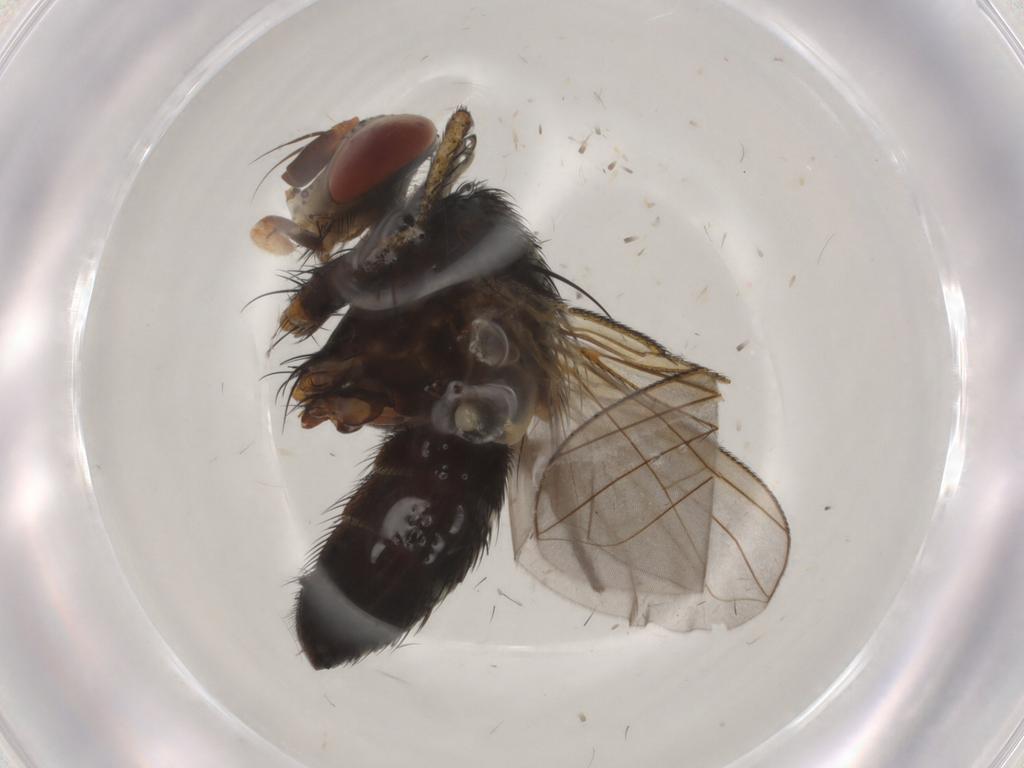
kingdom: Animalia
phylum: Arthropoda
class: Insecta
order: Diptera
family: Tachinidae
